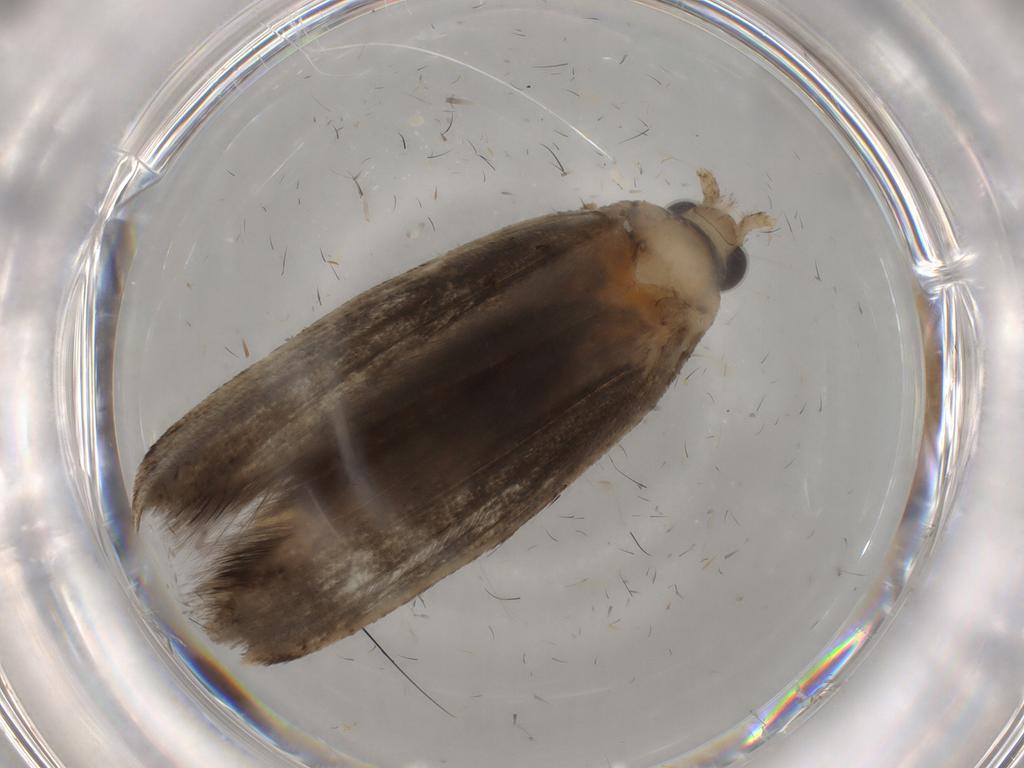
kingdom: Animalia
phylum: Arthropoda
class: Insecta
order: Lepidoptera
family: Yponomeutidae
